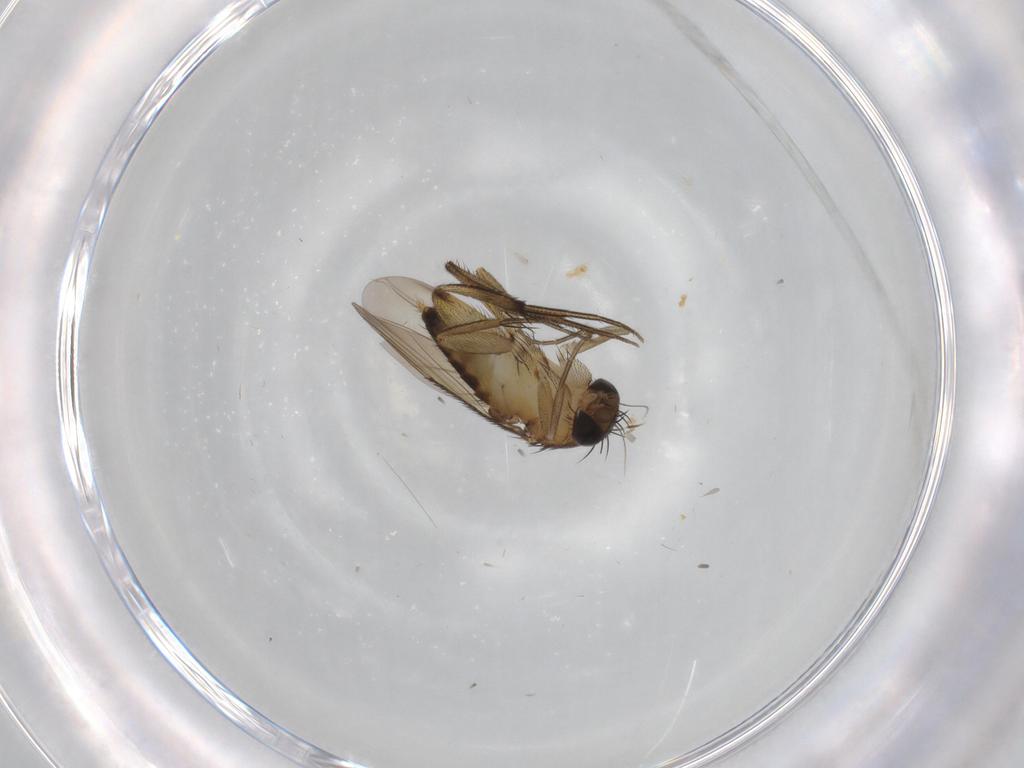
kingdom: Animalia
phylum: Arthropoda
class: Insecta
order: Diptera
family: Phoridae
